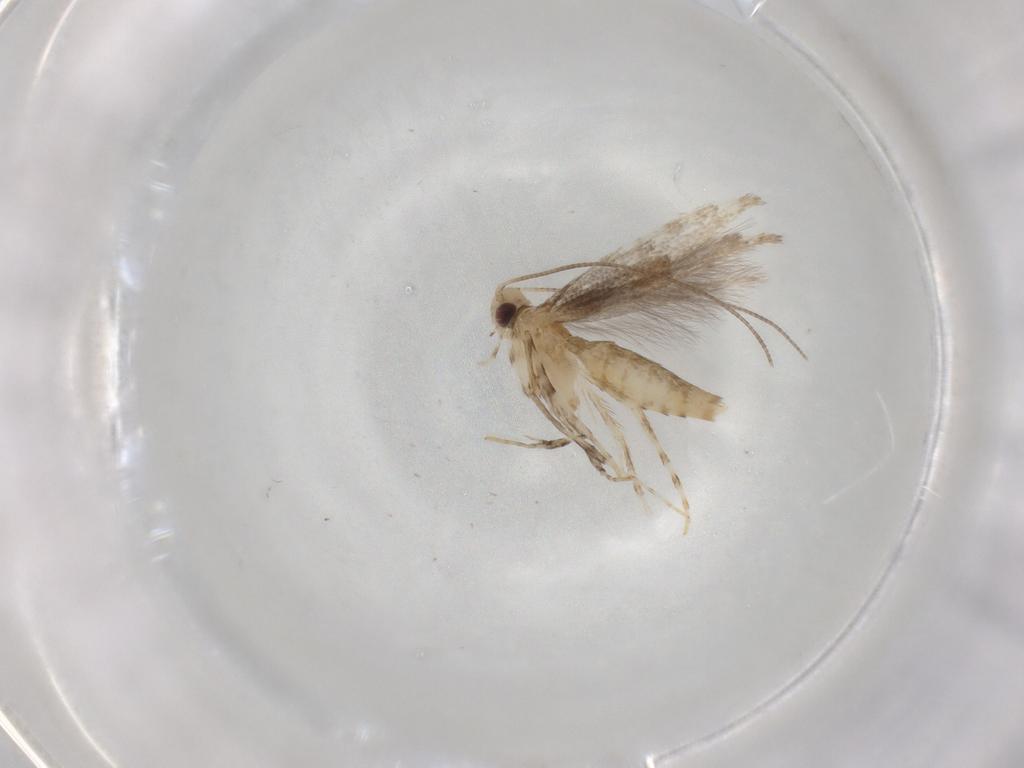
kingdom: Animalia
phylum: Arthropoda
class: Insecta
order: Lepidoptera
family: Gracillariidae
